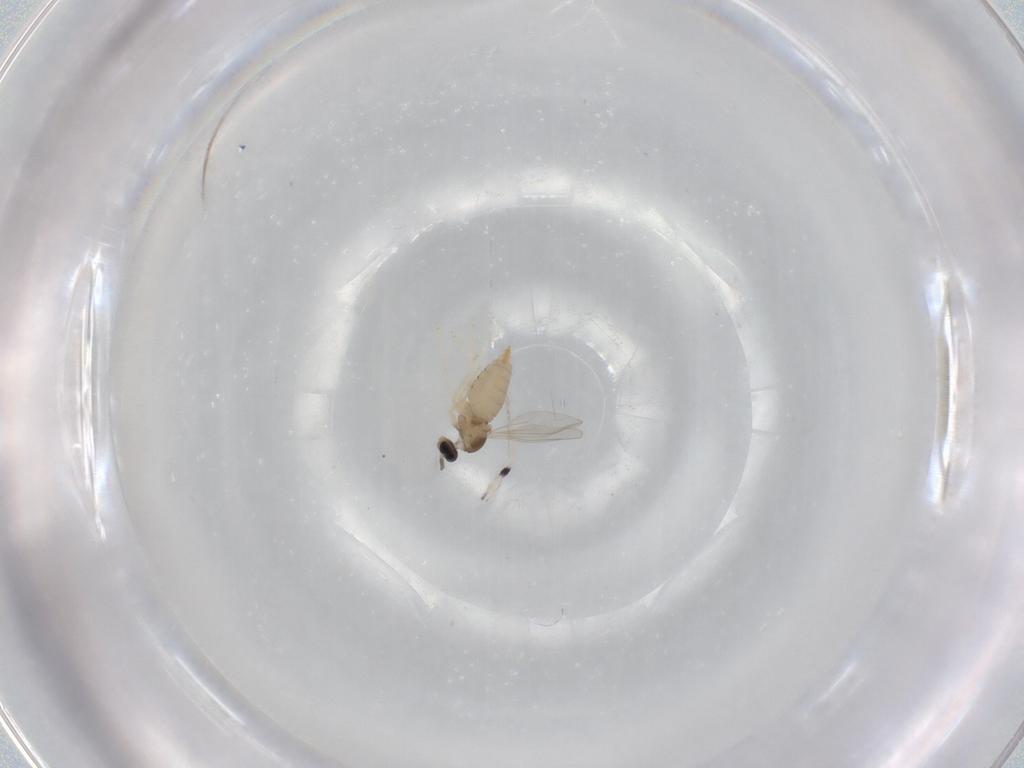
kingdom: Animalia
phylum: Arthropoda
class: Insecta
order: Diptera
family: Cecidomyiidae
